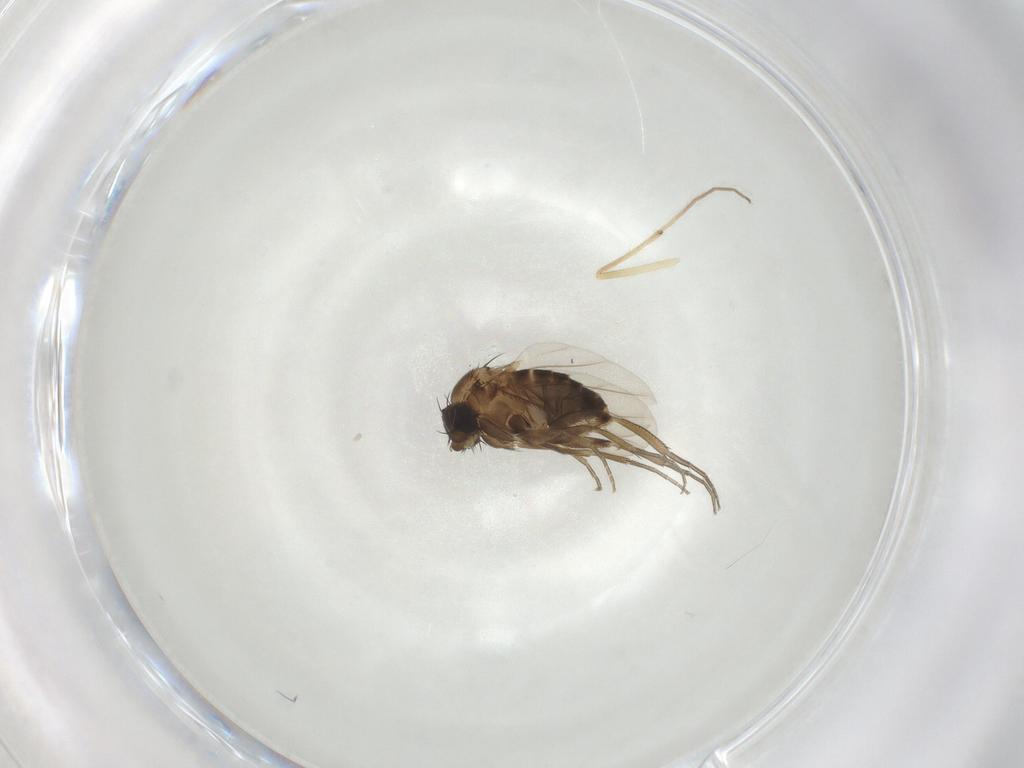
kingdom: Animalia
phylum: Arthropoda
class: Insecta
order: Diptera
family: Phoridae
